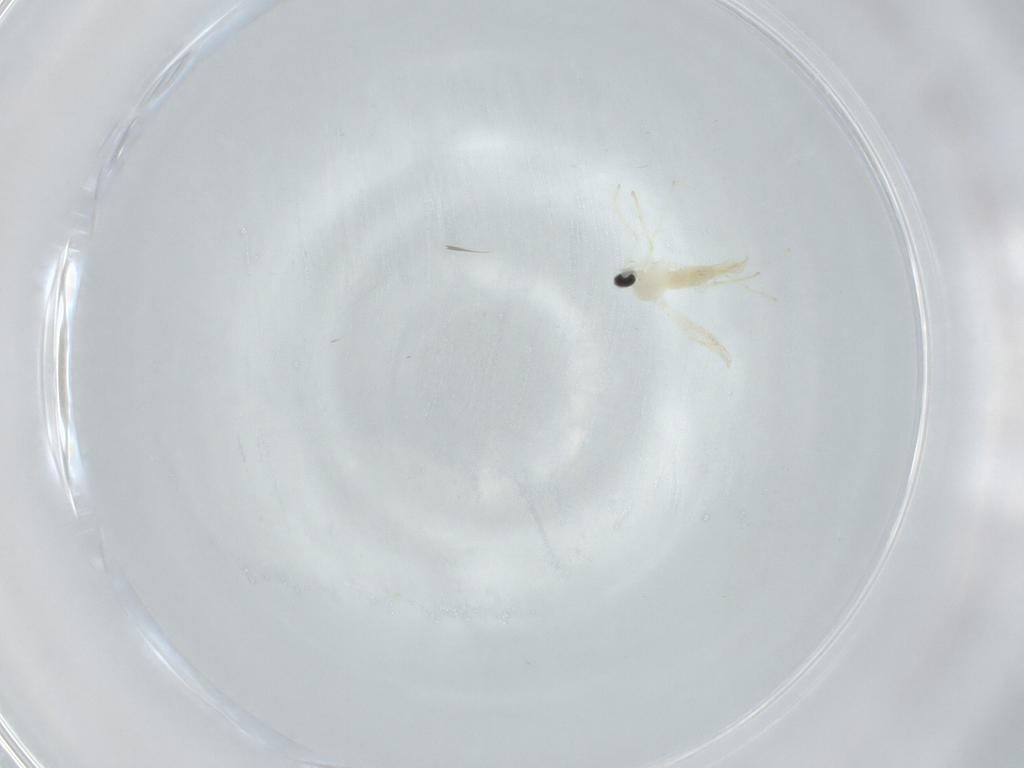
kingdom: Animalia
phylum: Arthropoda
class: Insecta
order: Diptera
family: Cecidomyiidae
